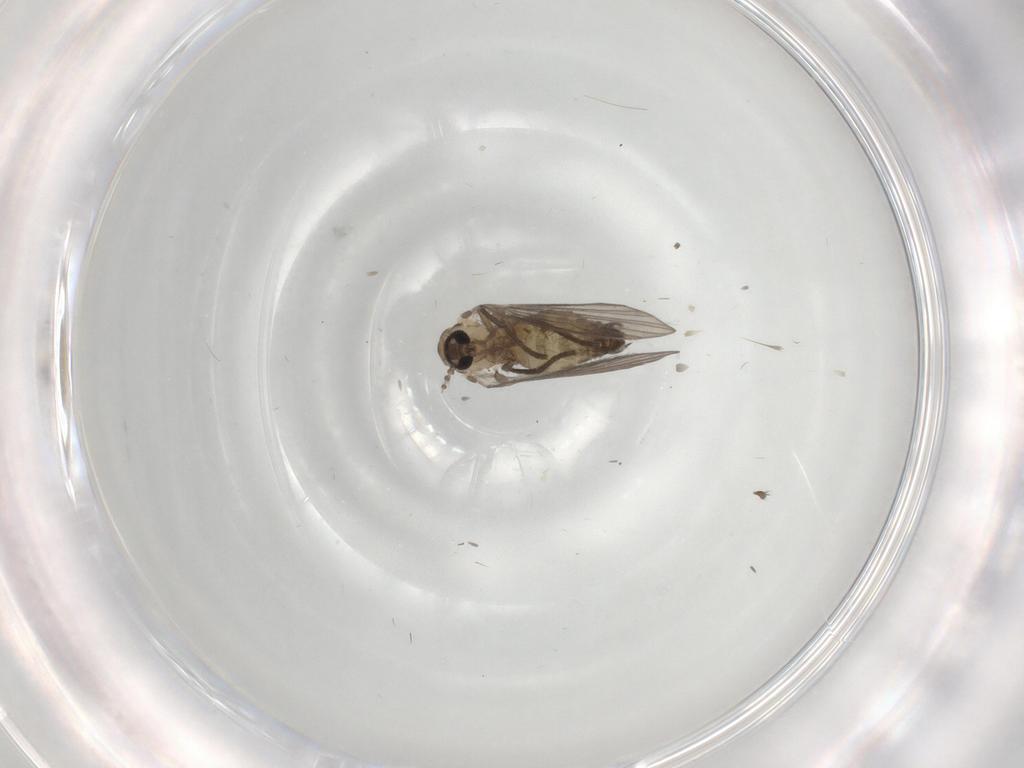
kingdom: Animalia
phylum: Arthropoda
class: Insecta
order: Diptera
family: Psychodidae
